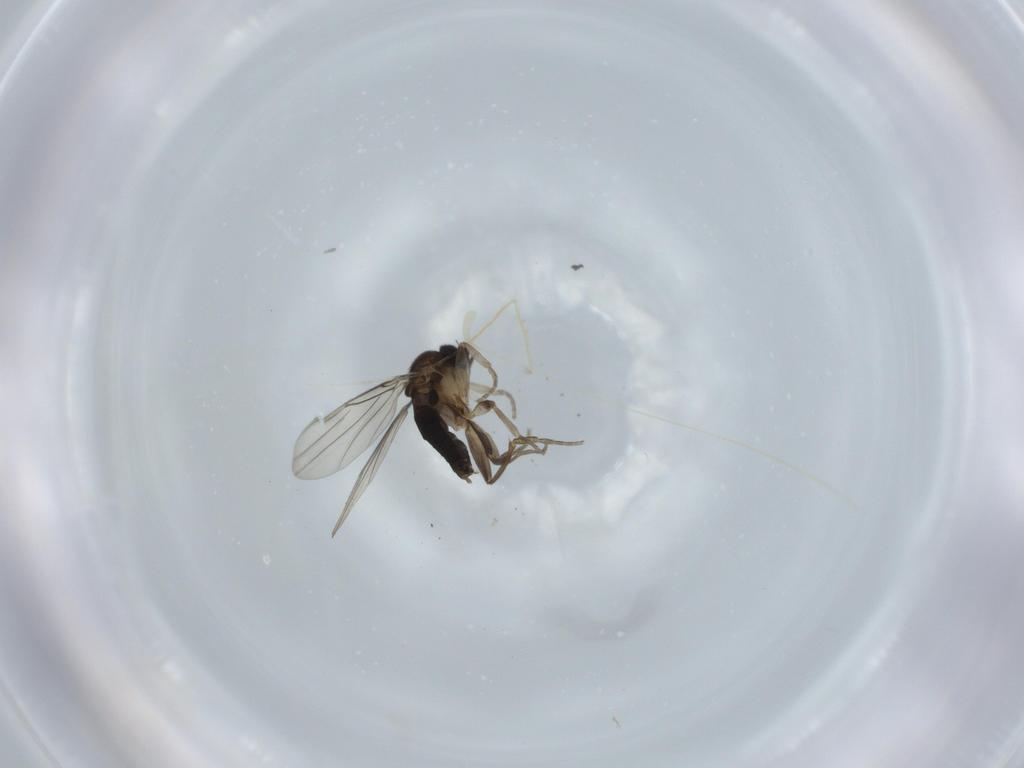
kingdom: Animalia
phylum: Arthropoda
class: Insecta
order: Diptera
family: Phoridae
